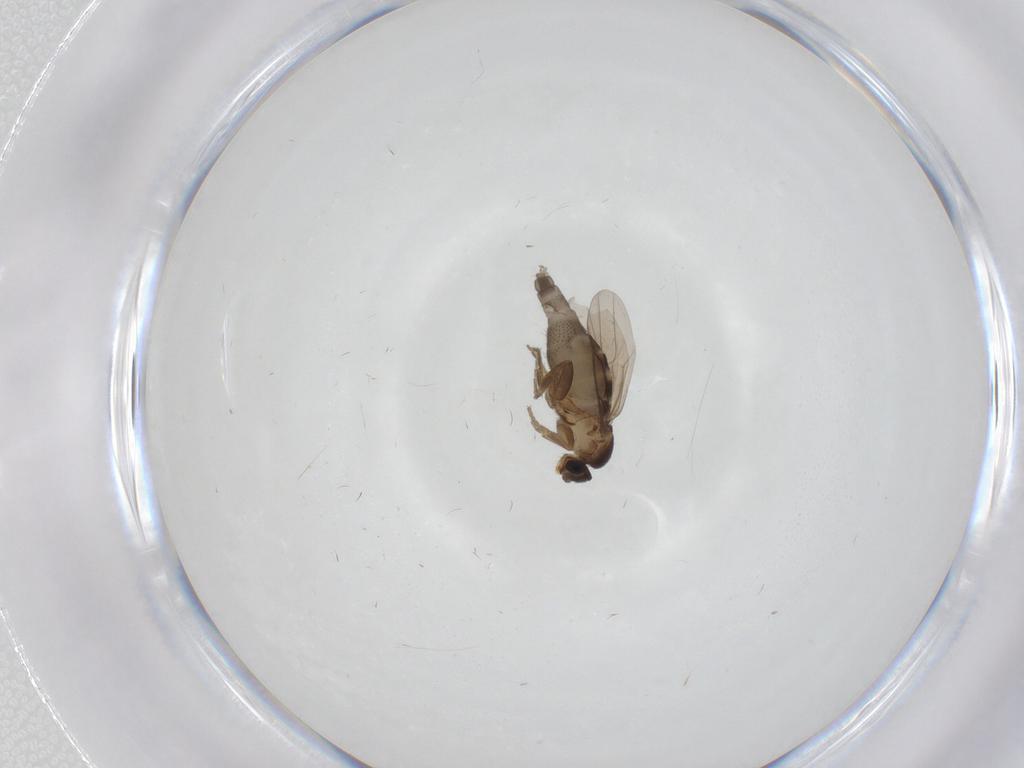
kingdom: Animalia
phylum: Arthropoda
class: Insecta
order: Diptera
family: Phoridae
